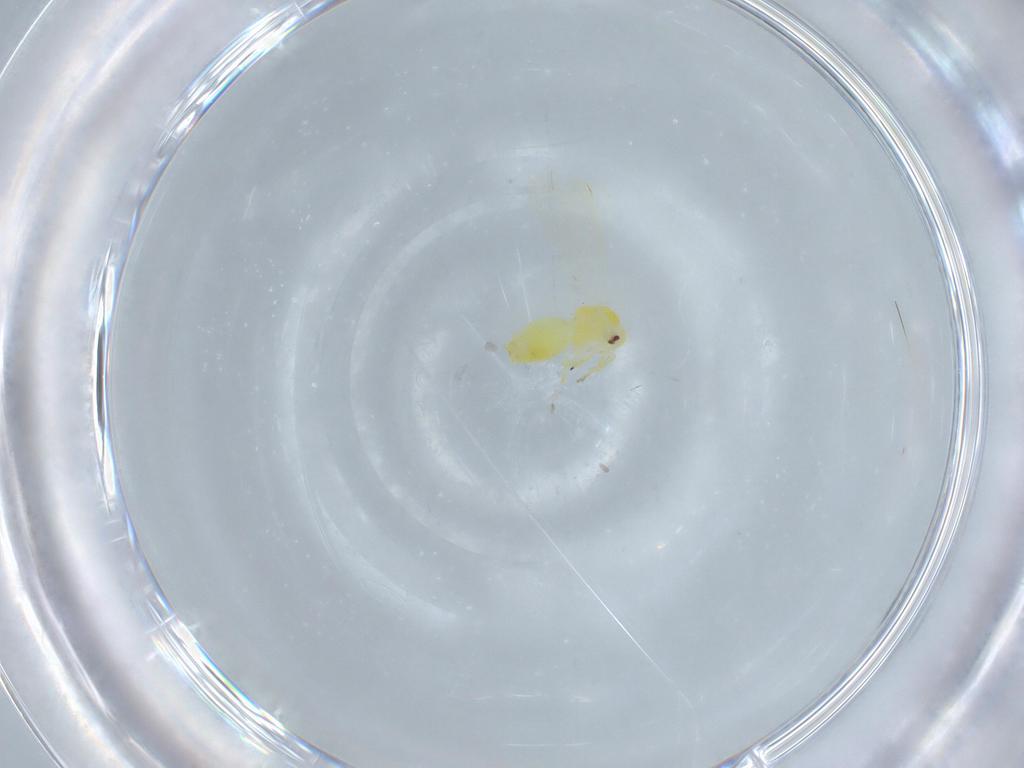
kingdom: Animalia
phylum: Arthropoda
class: Insecta
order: Hemiptera
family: Aleyrodidae
